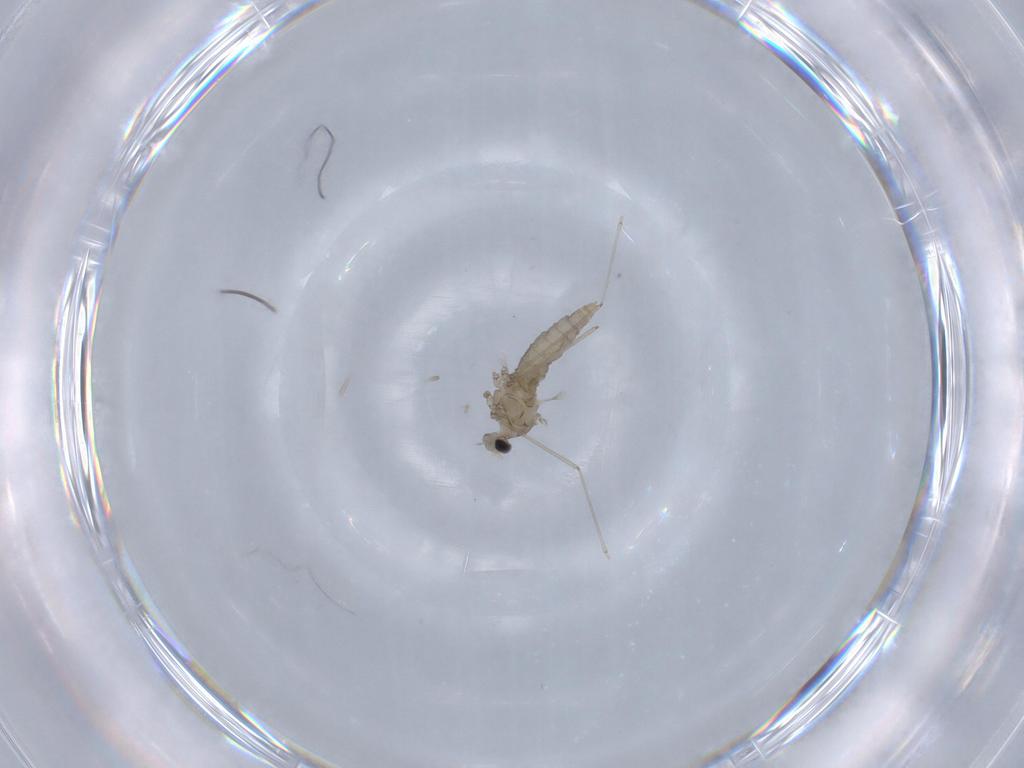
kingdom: Animalia
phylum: Arthropoda
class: Insecta
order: Diptera
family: Cecidomyiidae
